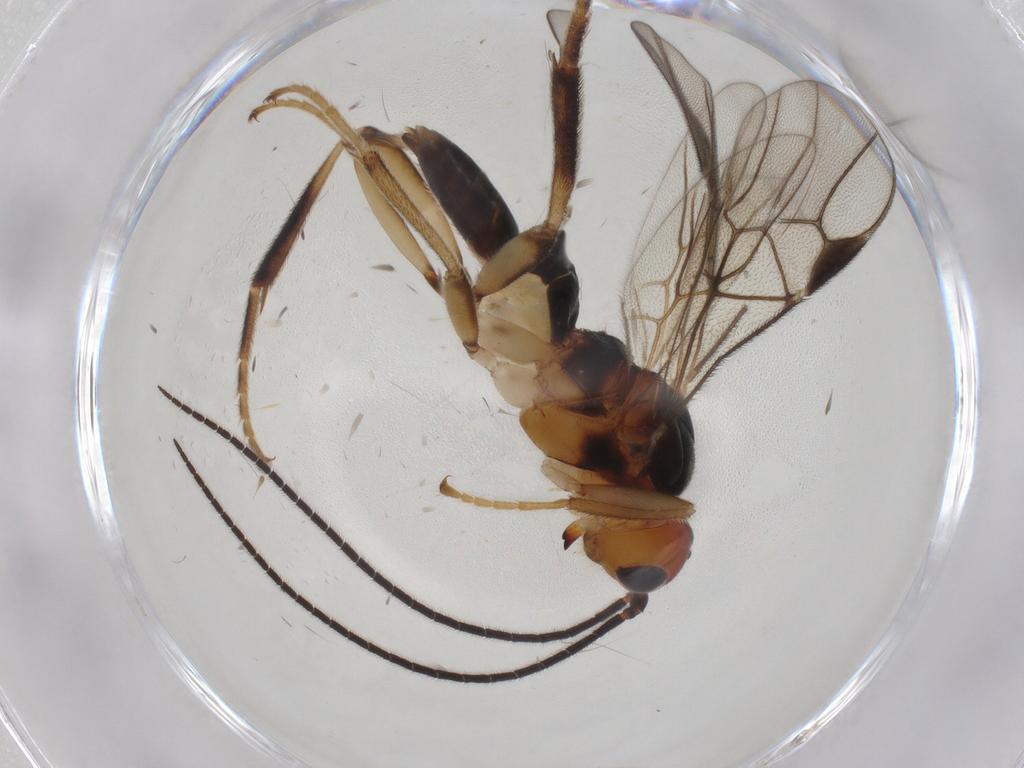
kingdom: Animalia
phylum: Arthropoda
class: Insecta
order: Hymenoptera
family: Braconidae
